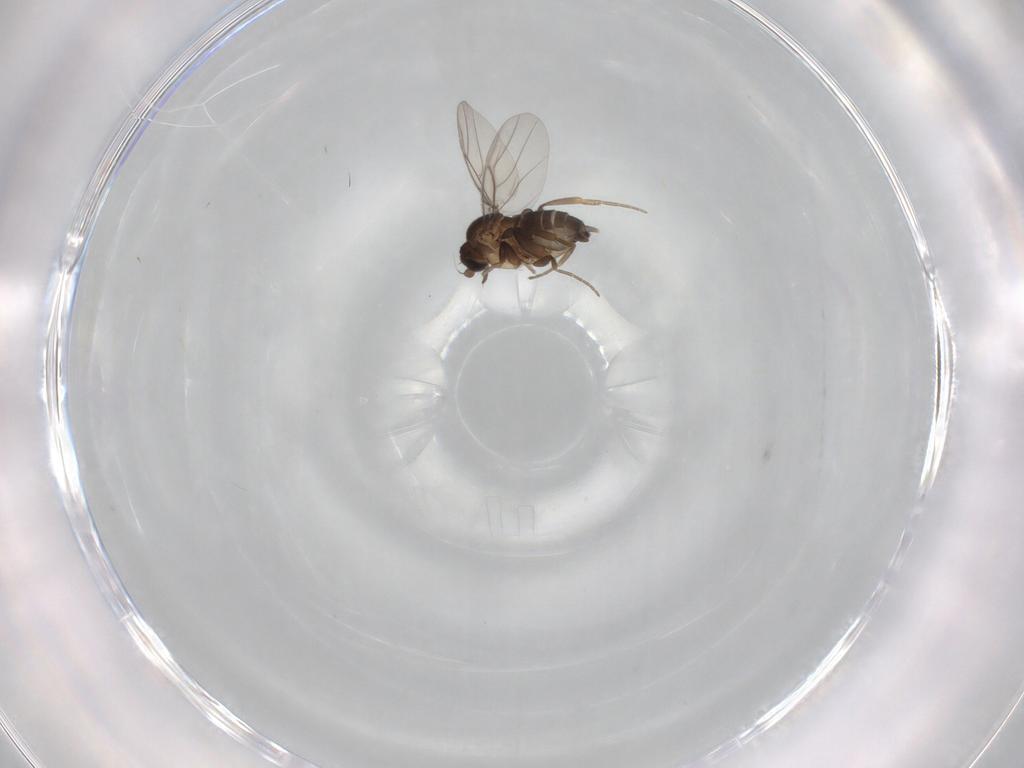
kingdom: Animalia
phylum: Arthropoda
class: Insecta
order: Diptera
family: Phoridae
